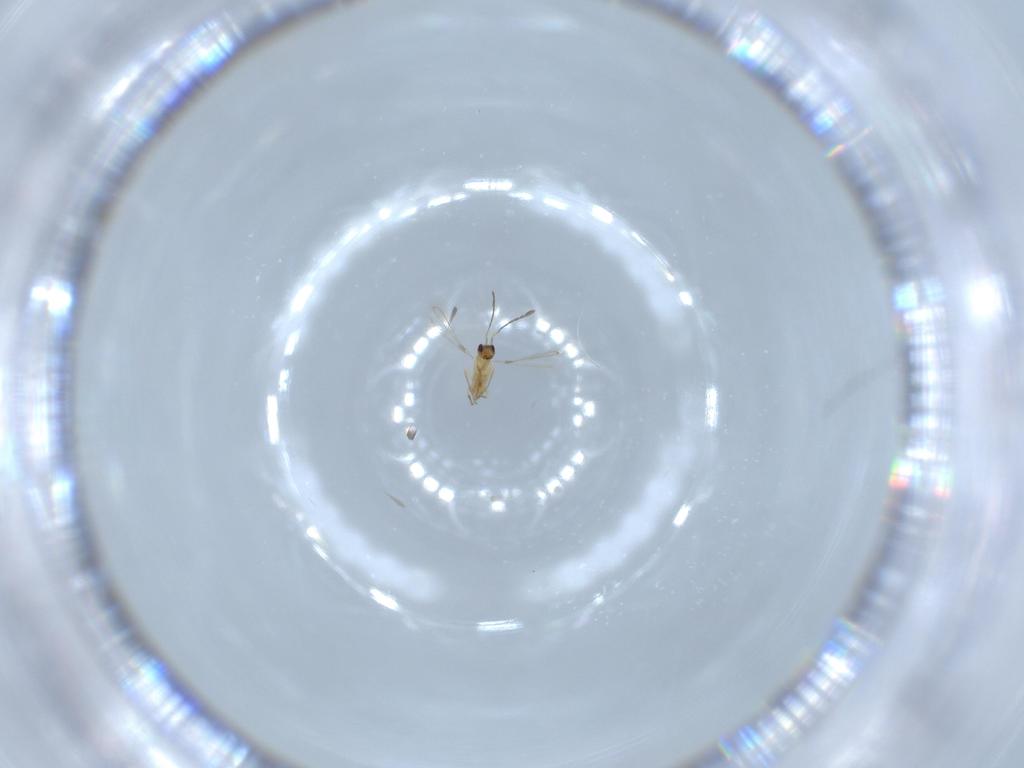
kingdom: Animalia
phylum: Arthropoda
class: Insecta
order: Hymenoptera
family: Mymaridae
